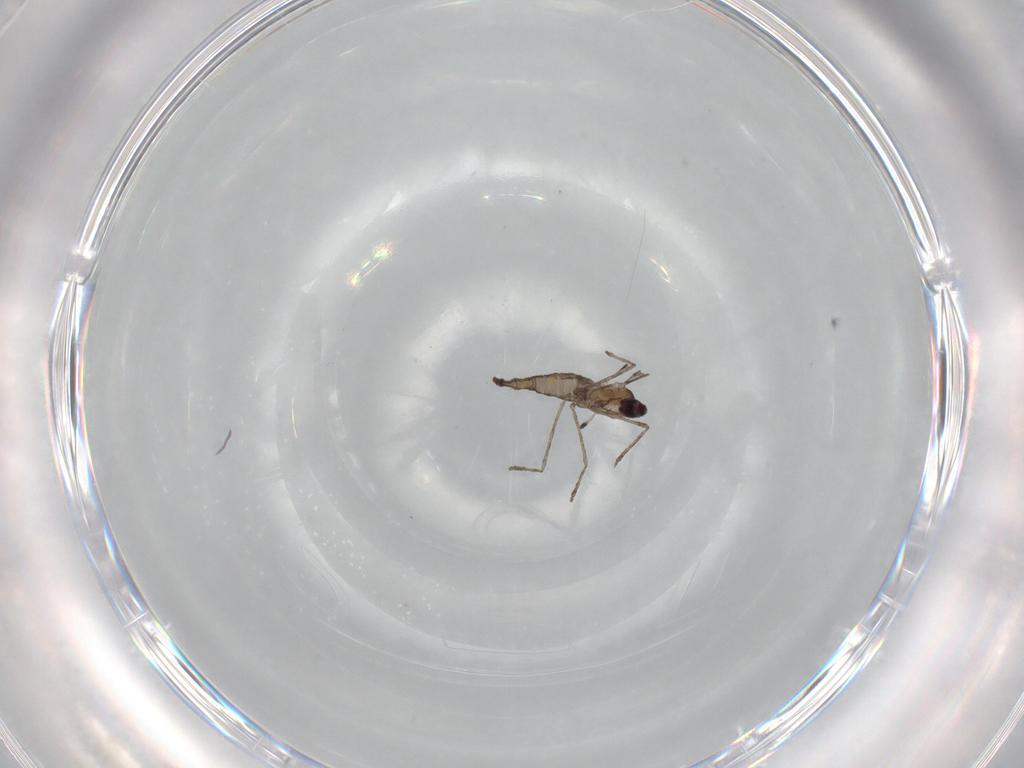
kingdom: Animalia
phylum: Arthropoda
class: Insecta
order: Diptera
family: Cecidomyiidae
